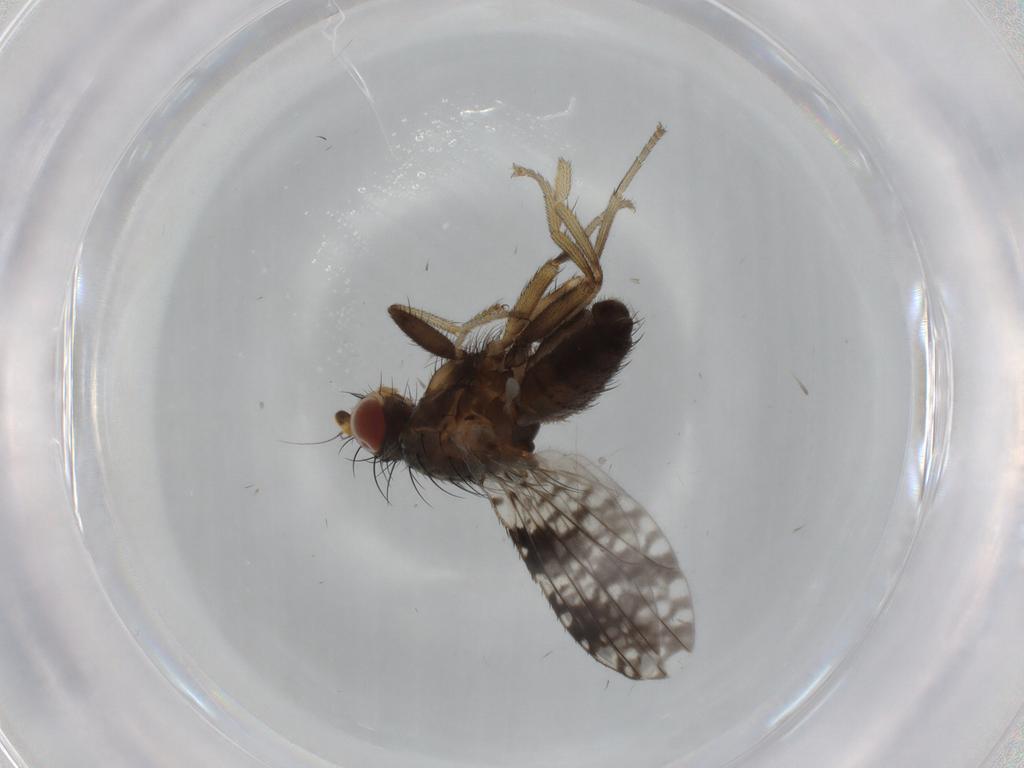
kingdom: Animalia
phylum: Arthropoda
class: Insecta
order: Diptera
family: Tephritidae
